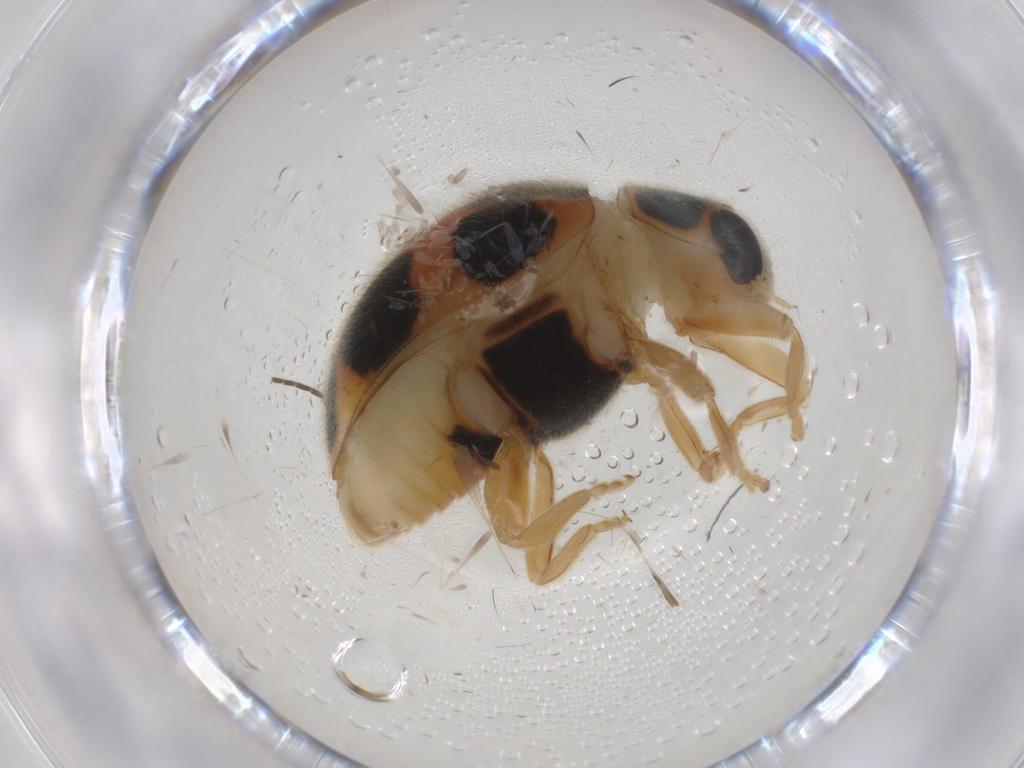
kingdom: Animalia
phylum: Arthropoda
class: Insecta
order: Coleoptera
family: Coccinellidae
